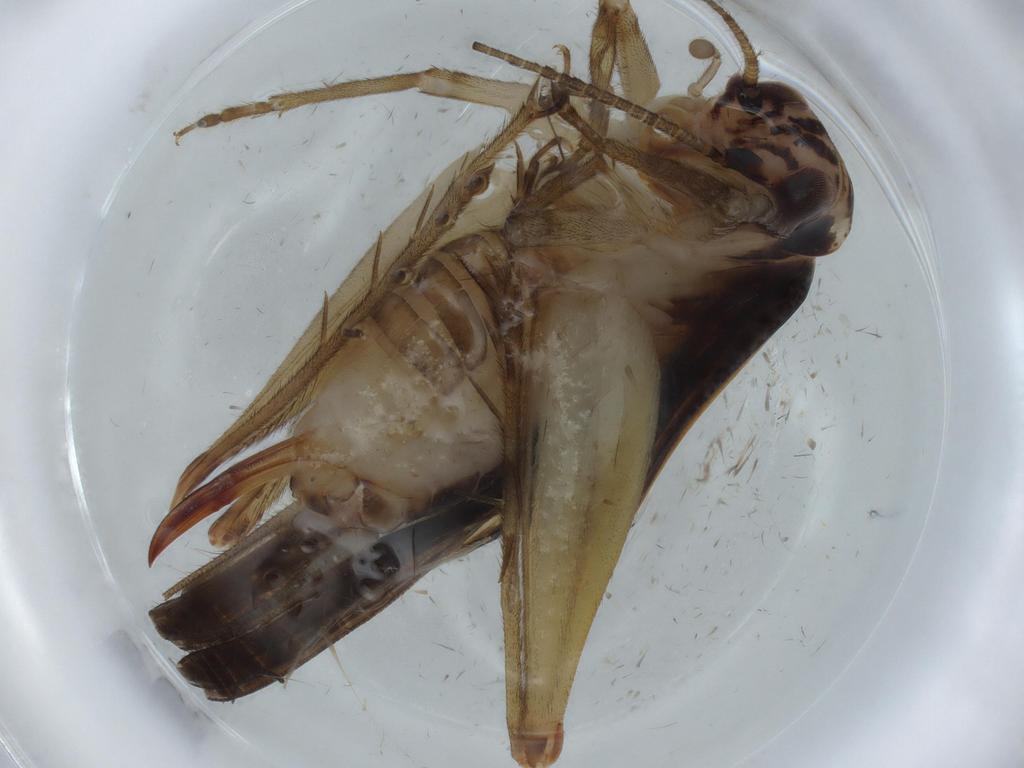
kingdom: Animalia
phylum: Arthropoda
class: Insecta
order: Orthoptera
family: Trigonidiidae
